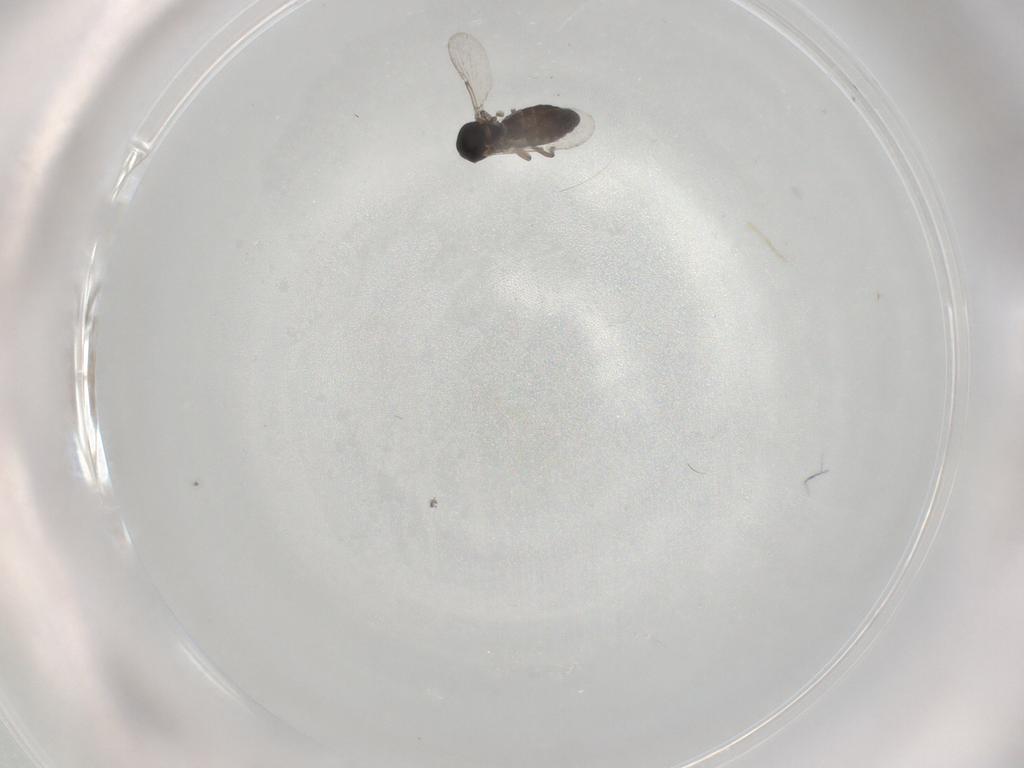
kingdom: Animalia
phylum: Arthropoda
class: Insecta
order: Diptera
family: Ceratopogonidae
